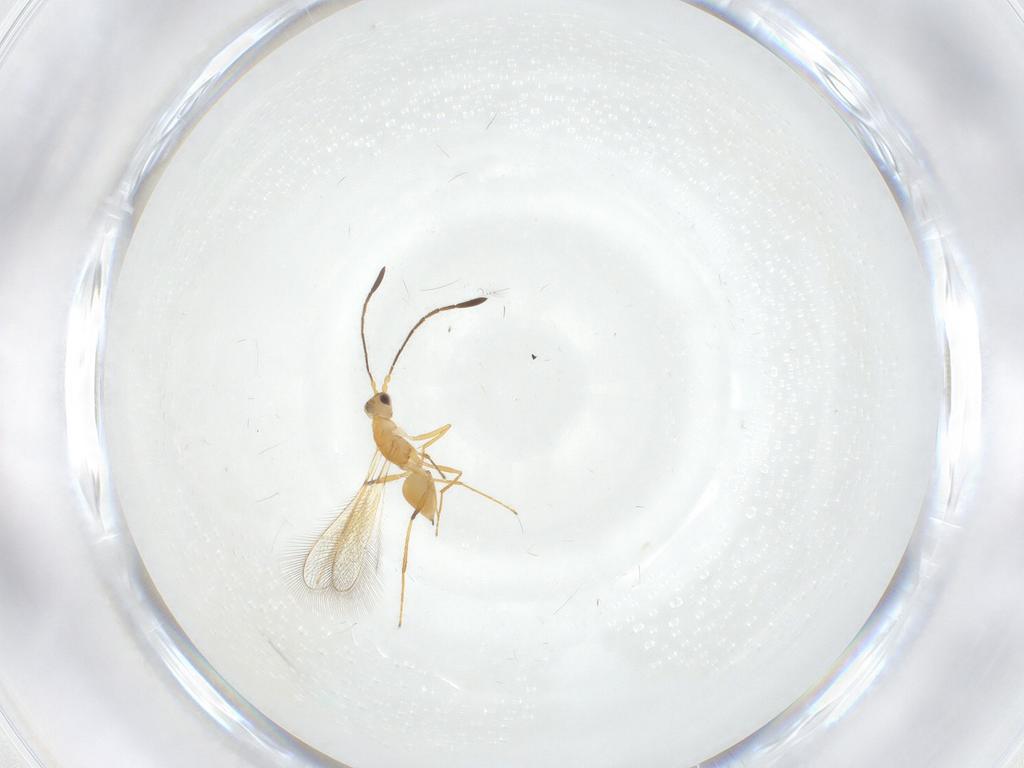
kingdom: Animalia
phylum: Arthropoda
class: Insecta
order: Hymenoptera
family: Mymaridae
